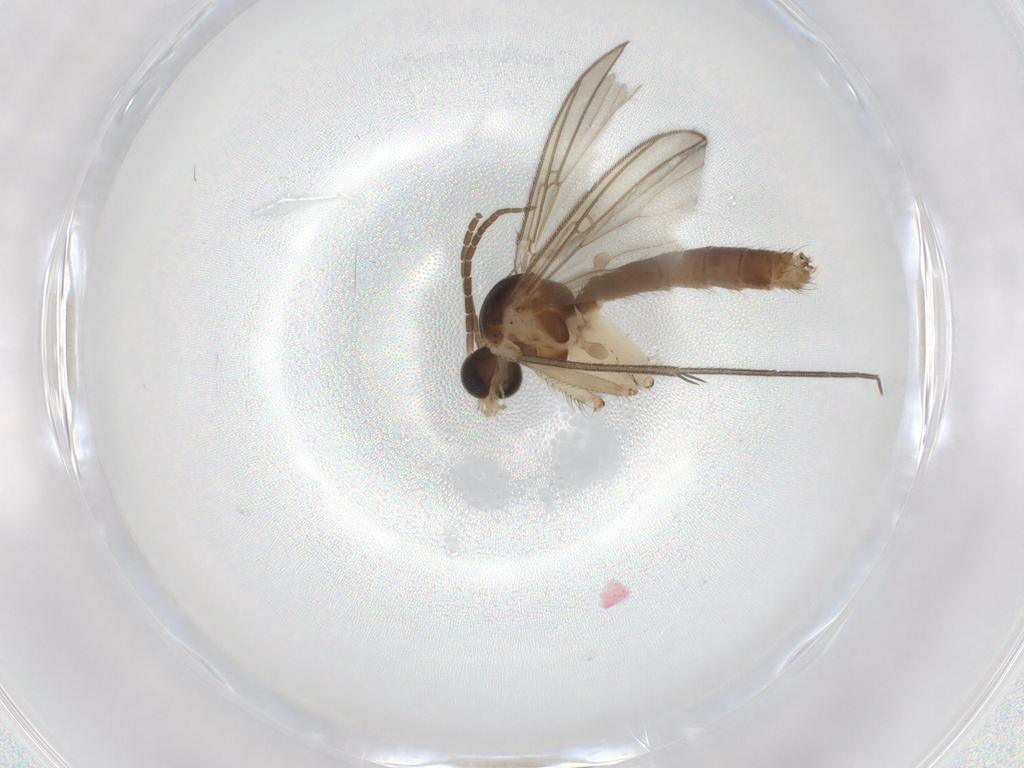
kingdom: Animalia
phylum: Arthropoda
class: Insecta
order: Diptera
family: Mycetophilidae
